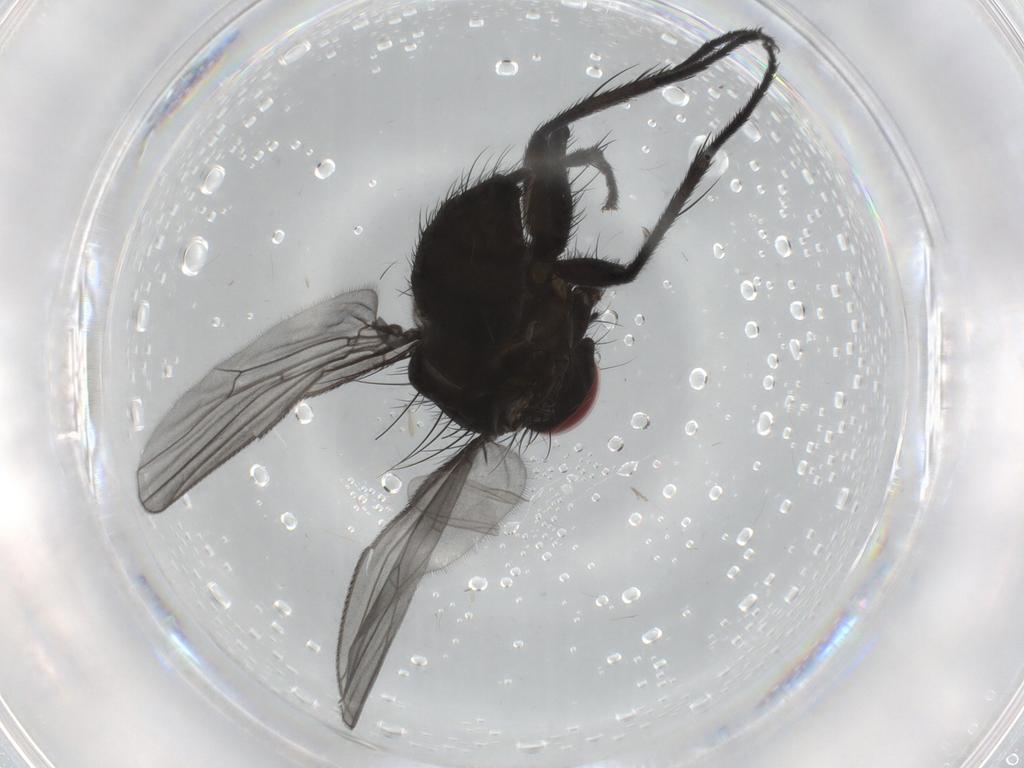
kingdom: Animalia
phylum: Arthropoda
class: Insecta
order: Diptera
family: Muscidae
